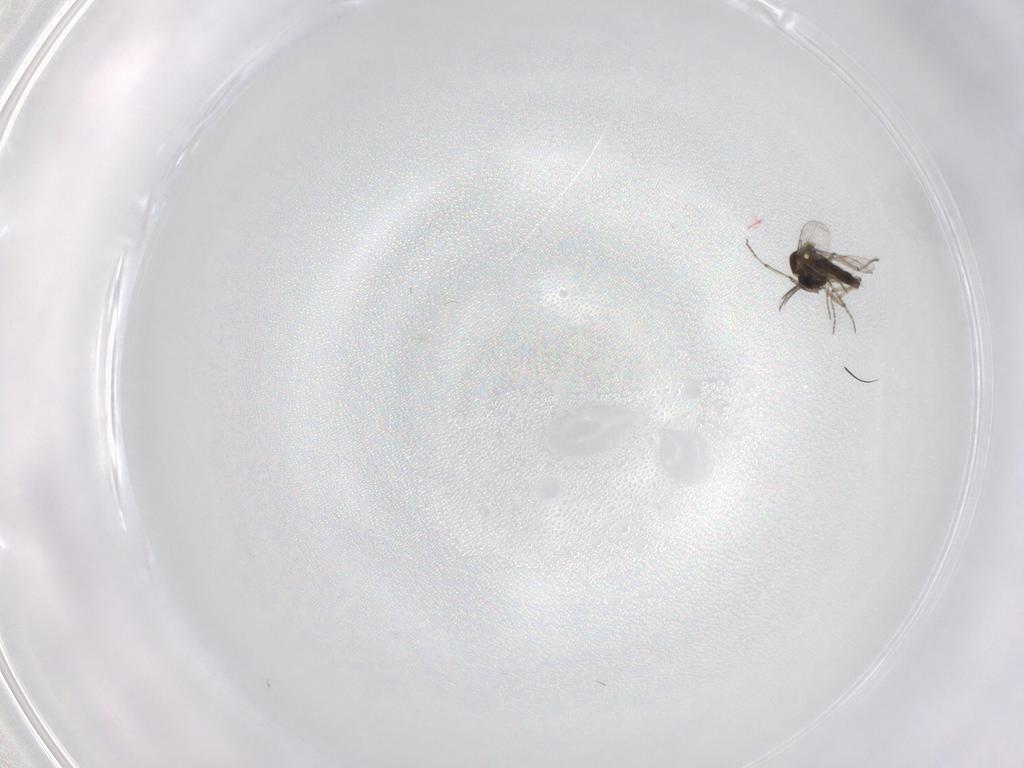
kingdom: Animalia
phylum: Arthropoda
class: Insecta
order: Diptera
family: Ceratopogonidae
